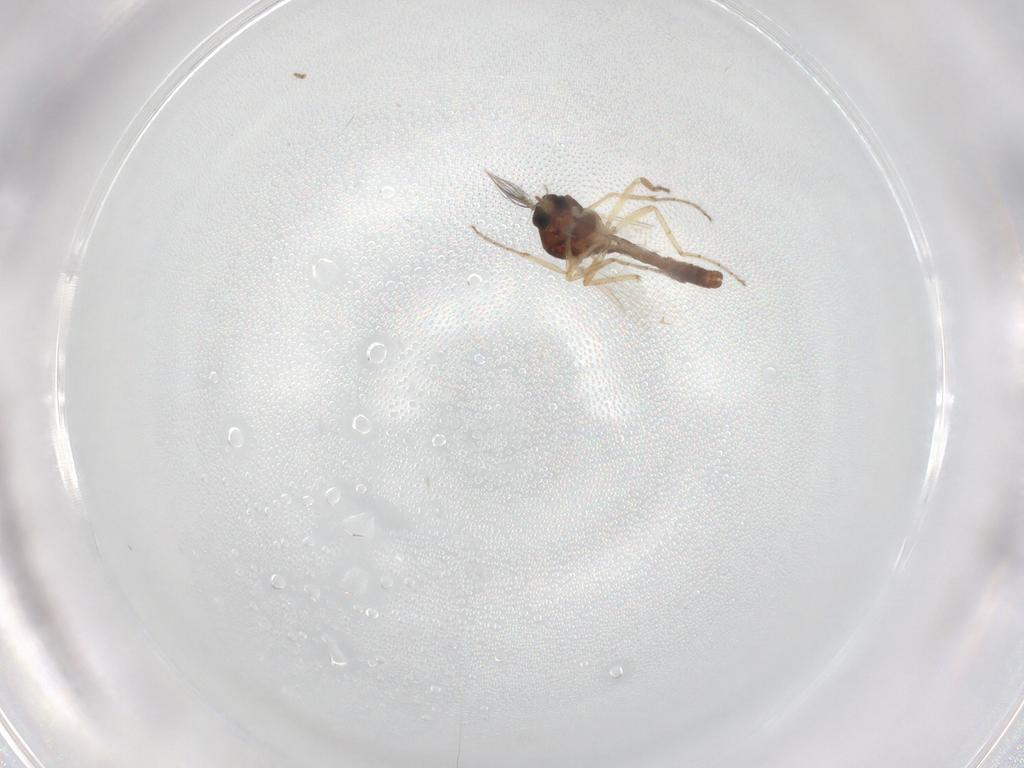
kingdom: Animalia
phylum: Arthropoda
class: Insecta
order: Diptera
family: Ceratopogonidae
